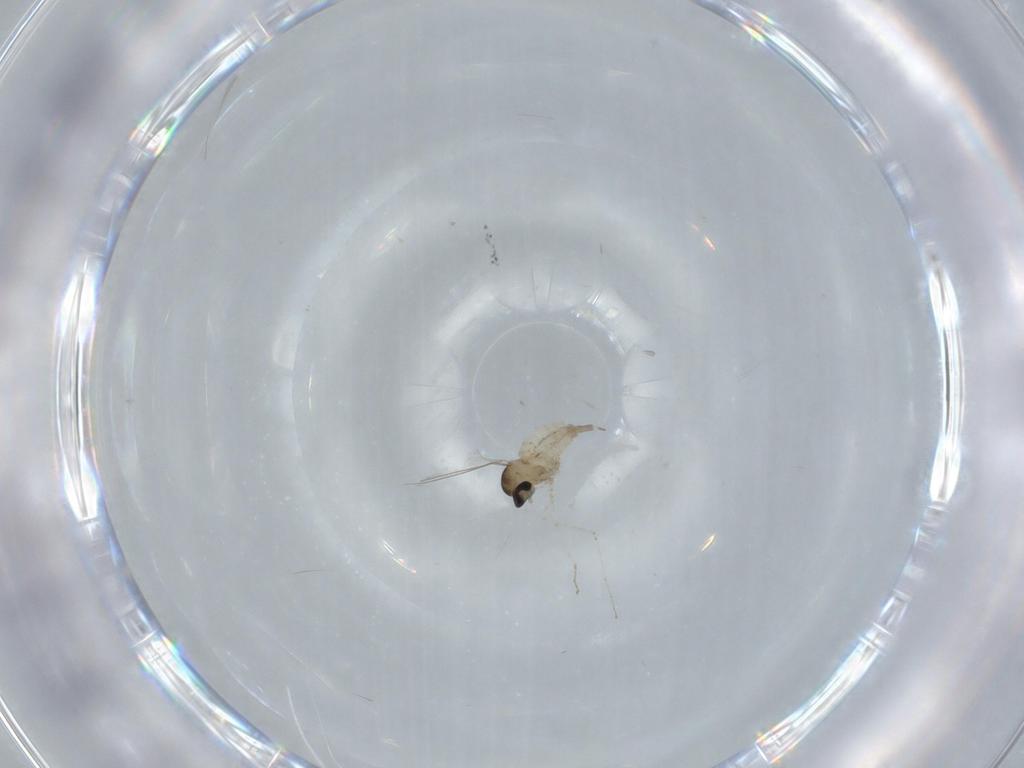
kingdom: Animalia
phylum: Arthropoda
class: Insecta
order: Diptera
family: Cecidomyiidae
